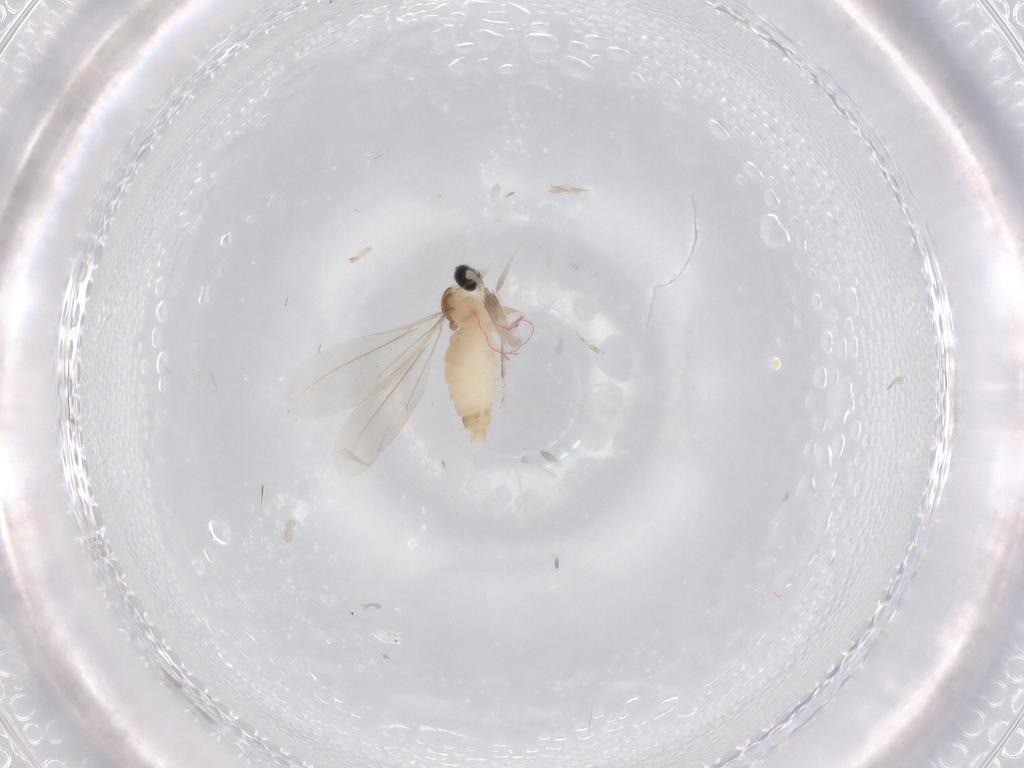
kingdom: Animalia
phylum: Arthropoda
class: Insecta
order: Diptera
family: Cecidomyiidae
